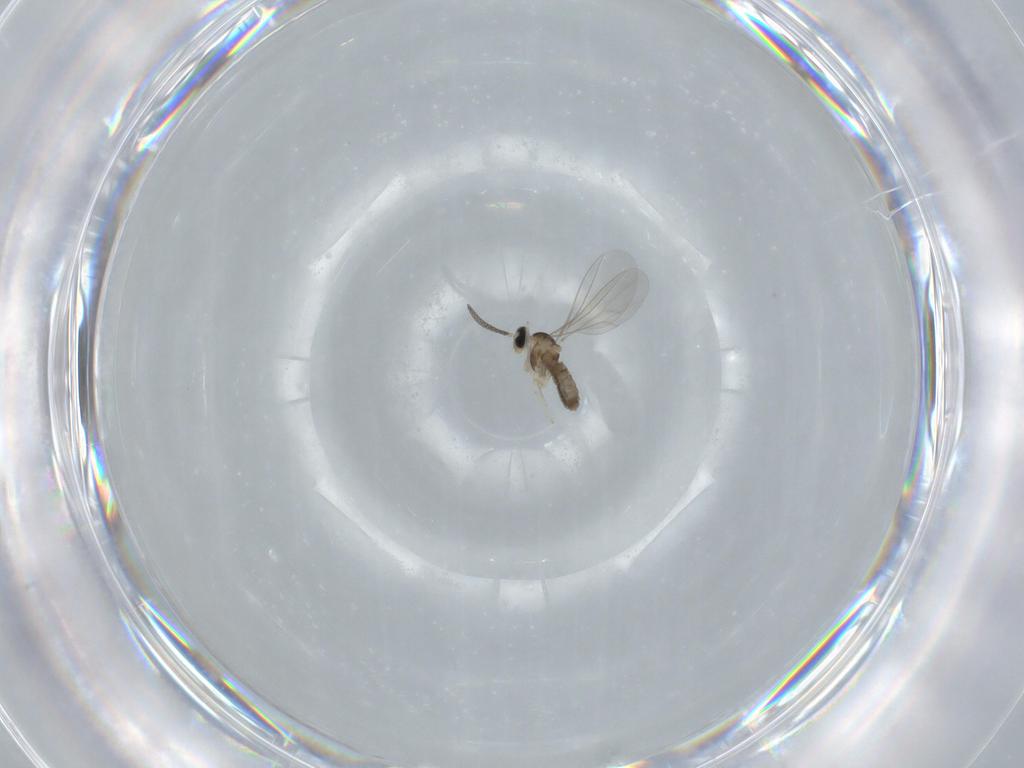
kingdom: Animalia
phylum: Arthropoda
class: Insecta
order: Diptera
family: Cecidomyiidae
